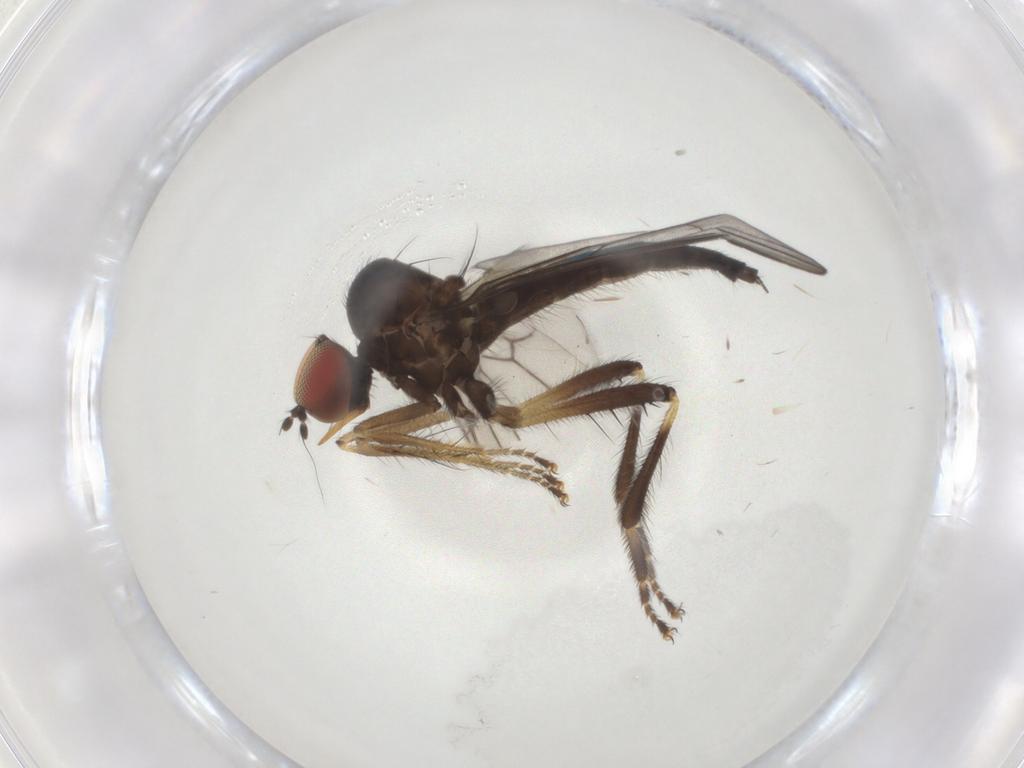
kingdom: Animalia
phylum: Arthropoda
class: Insecta
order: Diptera
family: Hybotidae
